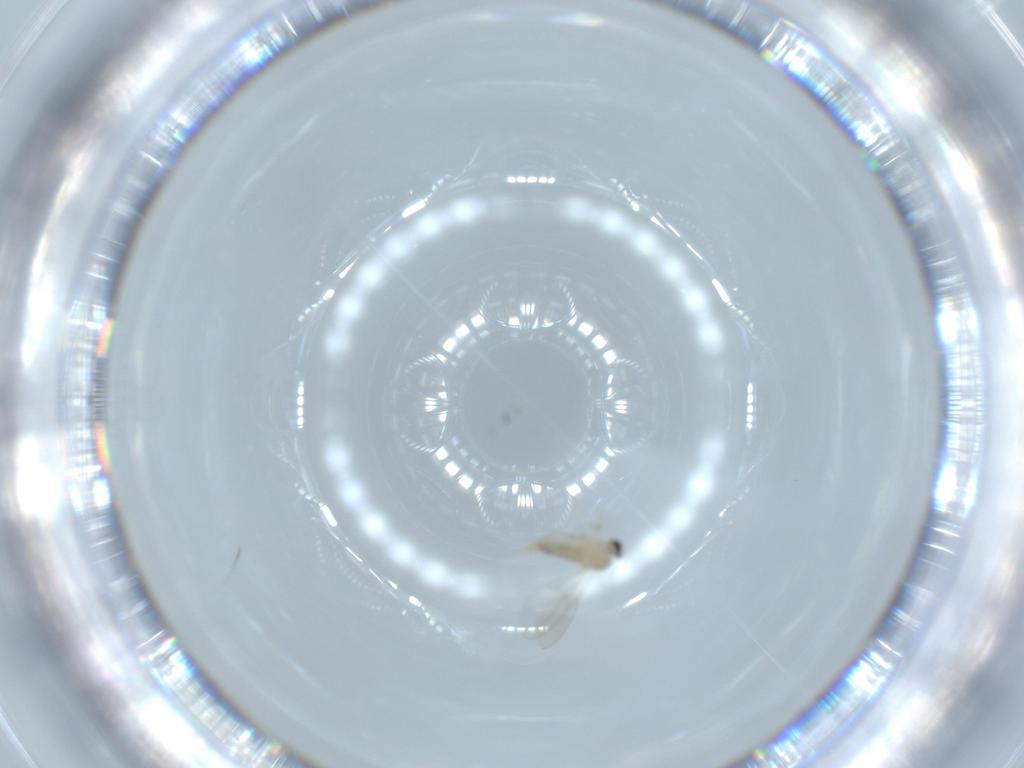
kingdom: Animalia
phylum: Arthropoda
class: Insecta
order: Diptera
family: Cecidomyiidae
